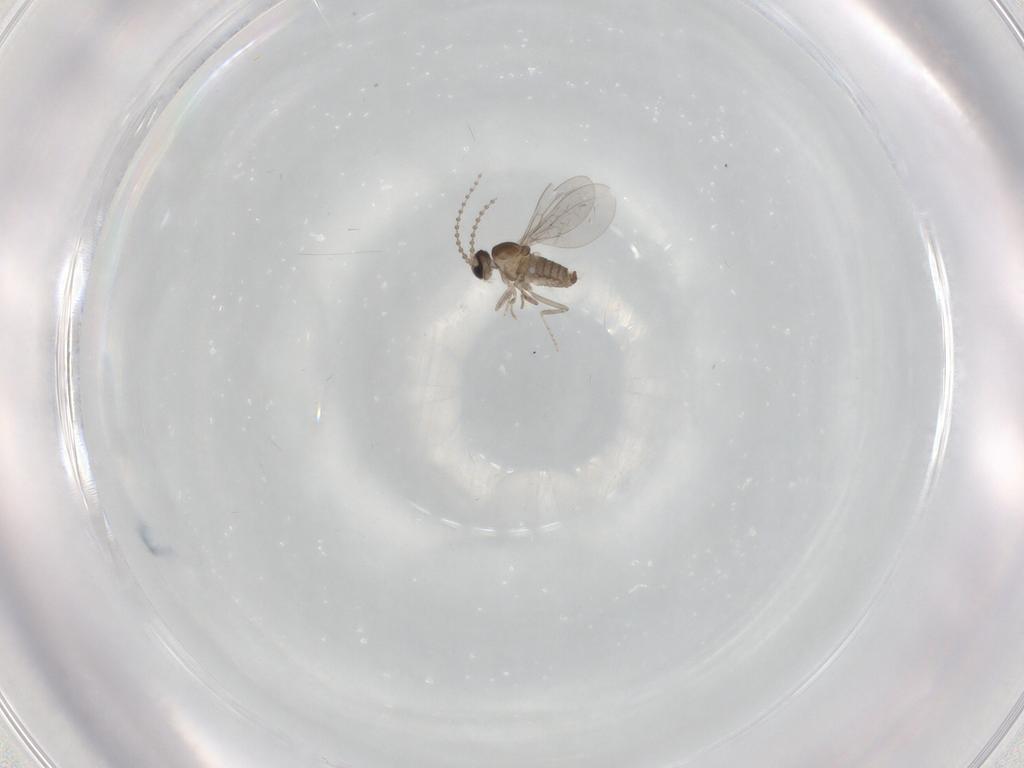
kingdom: Animalia
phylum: Arthropoda
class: Insecta
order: Diptera
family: Cecidomyiidae
